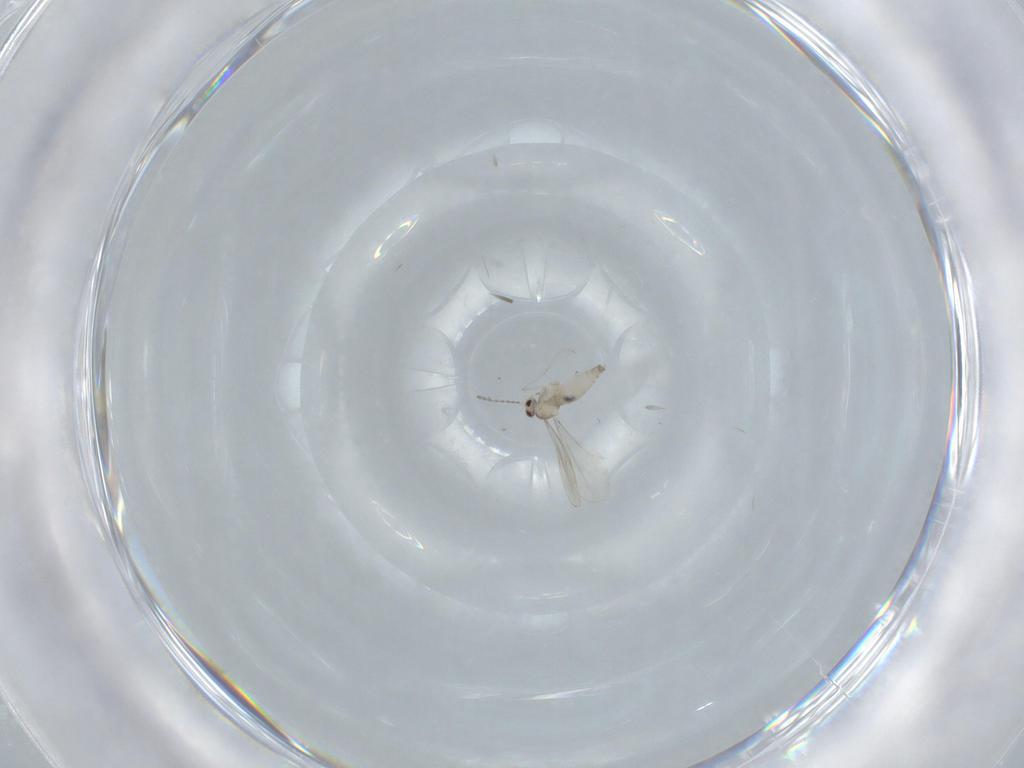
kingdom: Animalia
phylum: Arthropoda
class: Insecta
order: Diptera
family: Cecidomyiidae
